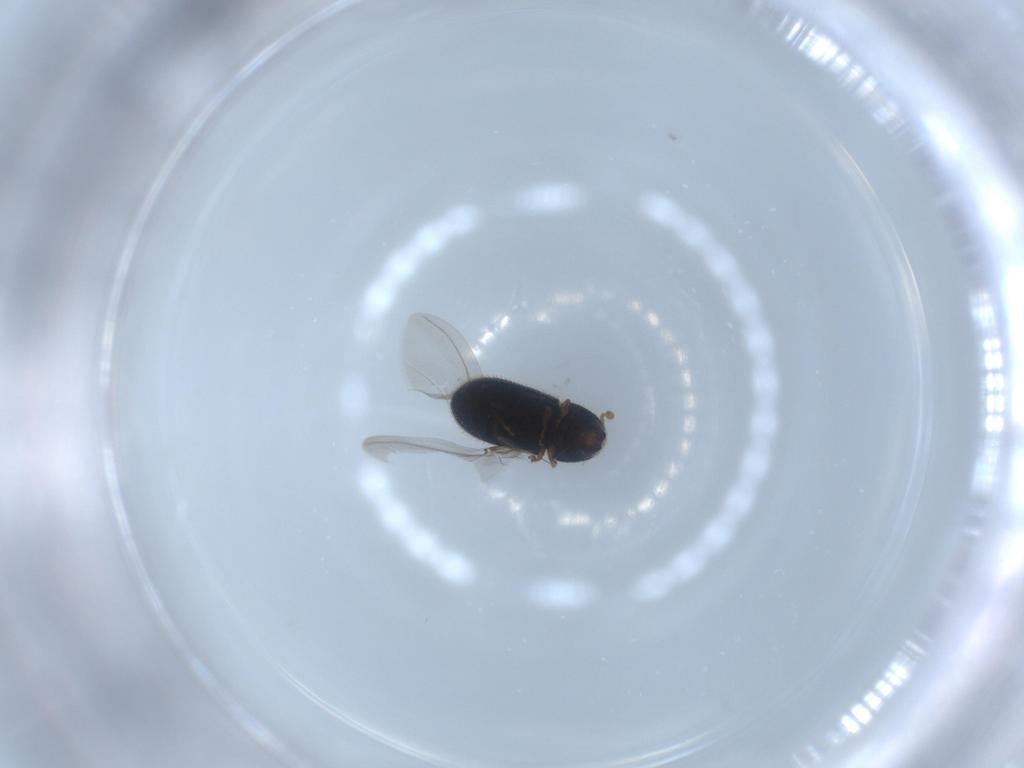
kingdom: Animalia
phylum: Arthropoda
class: Insecta
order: Coleoptera
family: Curculionidae
